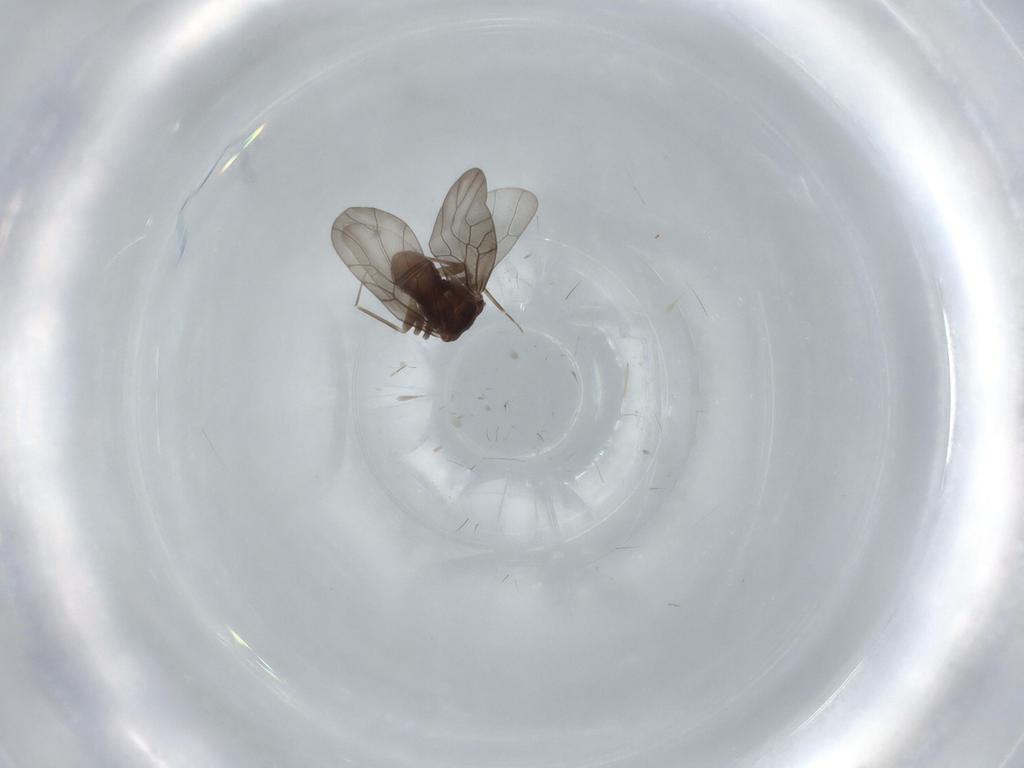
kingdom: Animalia
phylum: Arthropoda
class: Insecta
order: Psocodea
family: Lepidopsocidae
